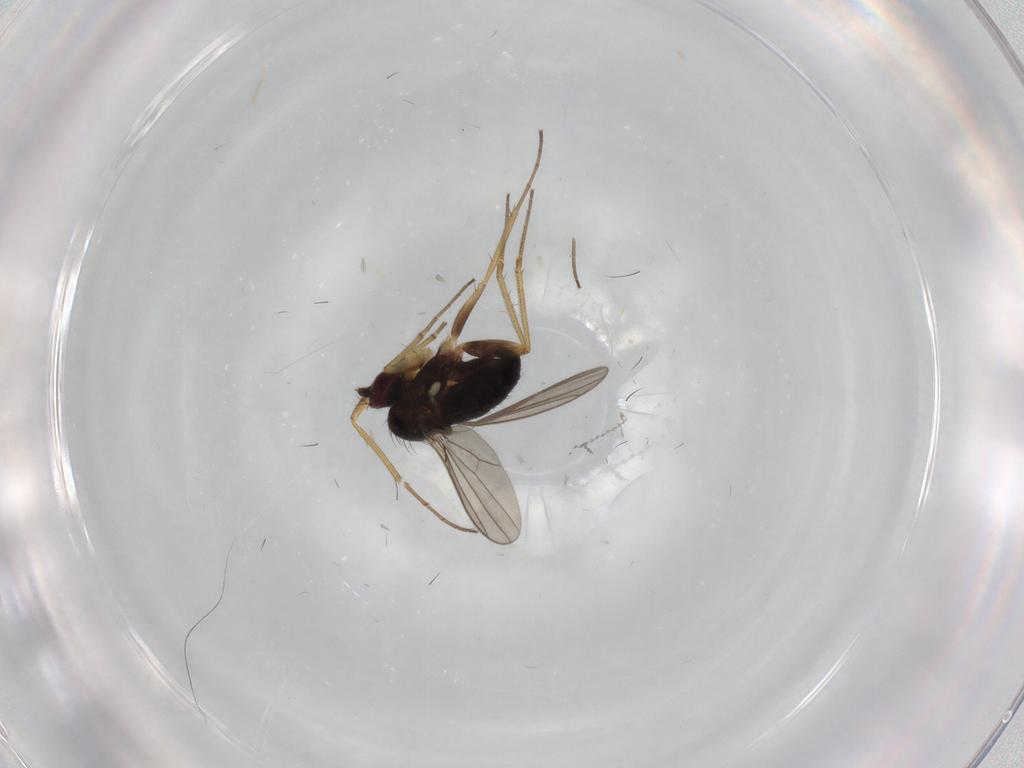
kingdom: Animalia
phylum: Arthropoda
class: Insecta
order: Diptera
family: Dolichopodidae
